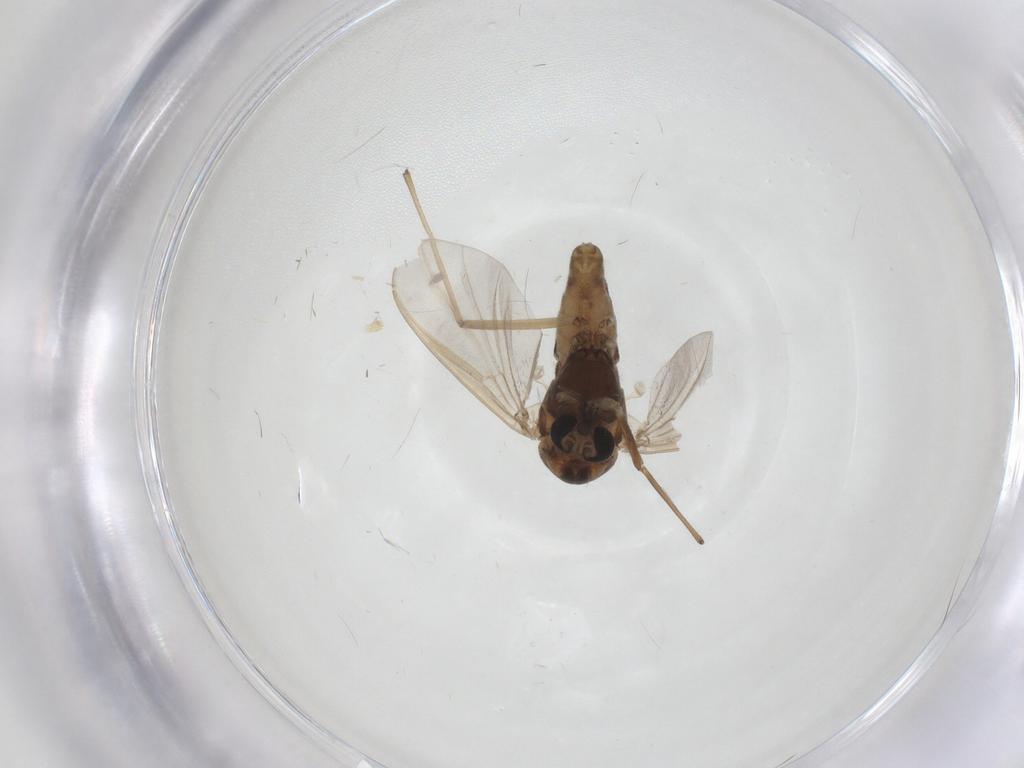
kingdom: Animalia
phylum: Arthropoda
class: Insecta
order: Diptera
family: Chironomidae
